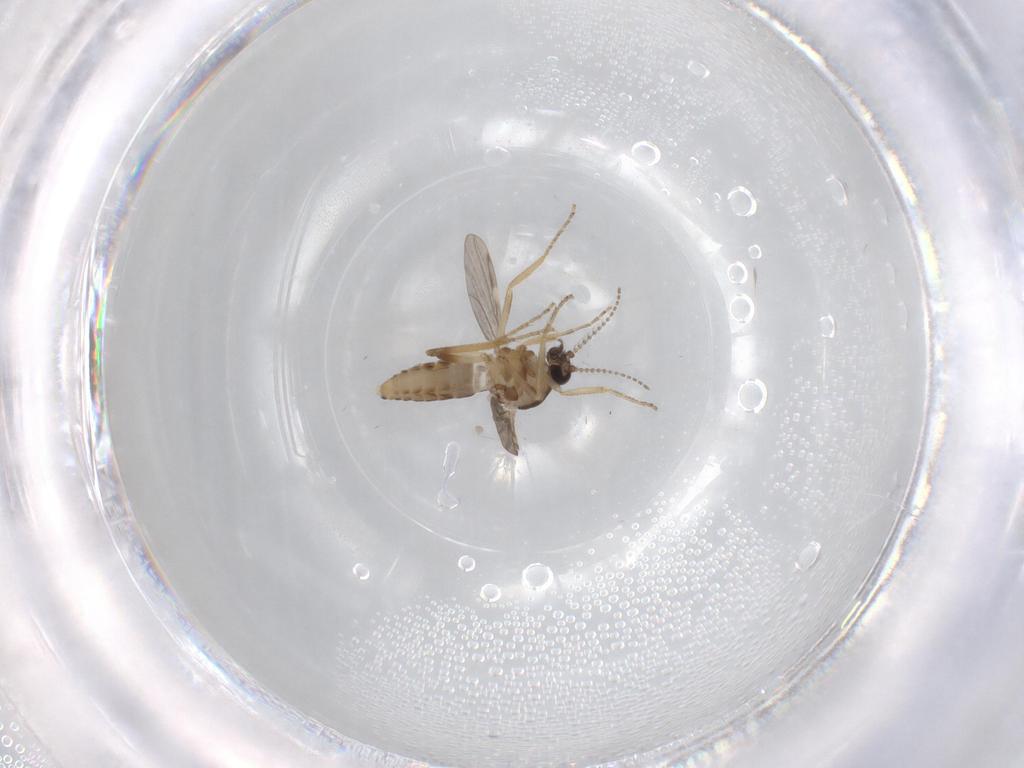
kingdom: Animalia
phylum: Arthropoda
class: Insecta
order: Diptera
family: Ceratopogonidae
